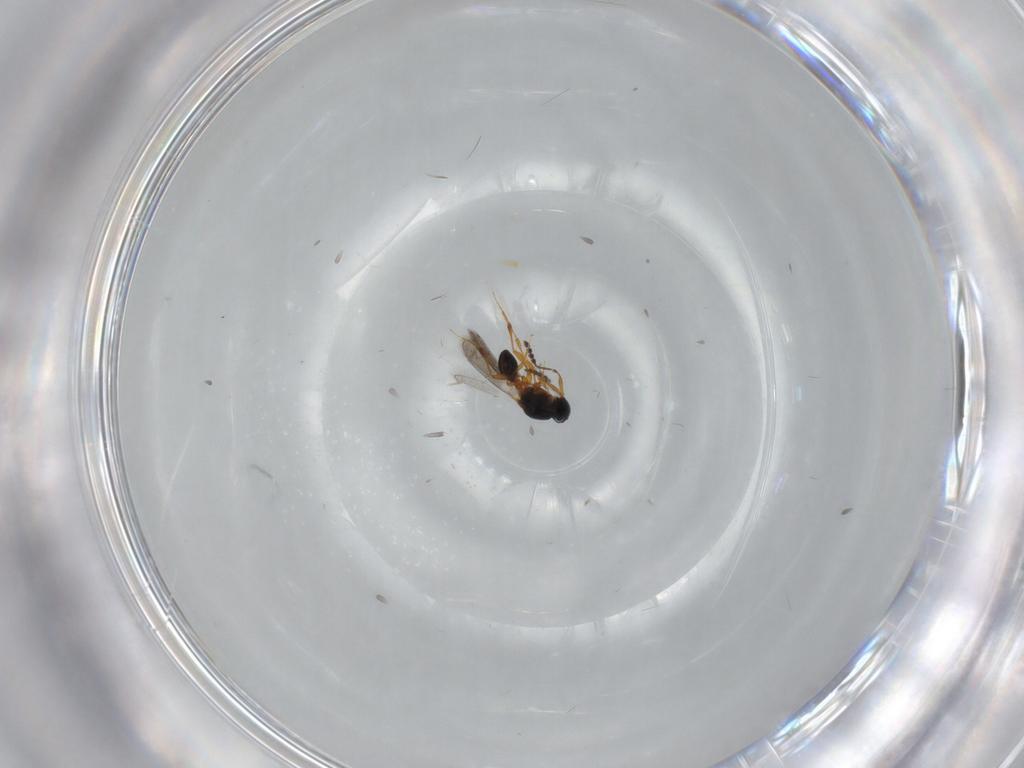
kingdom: Animalia
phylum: Arthropoda
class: Insecta
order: Hymenoptera
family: Platygastridae
